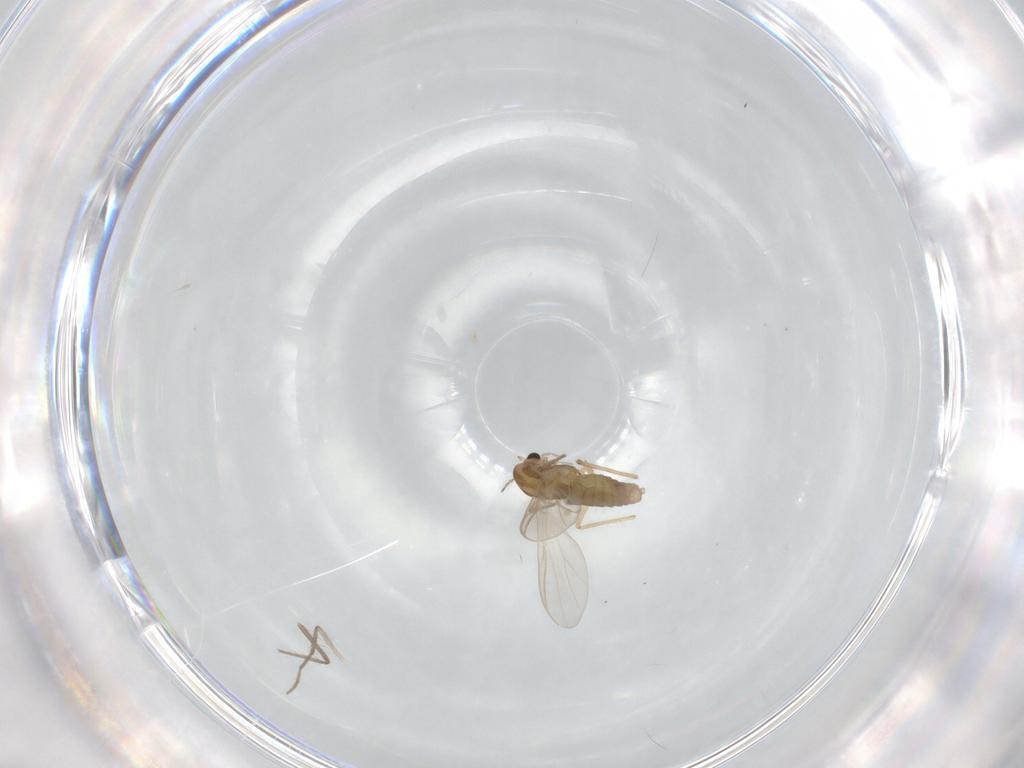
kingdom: Animalia
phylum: Arthropoda
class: Insecta
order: Diptera
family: Chironomidae
